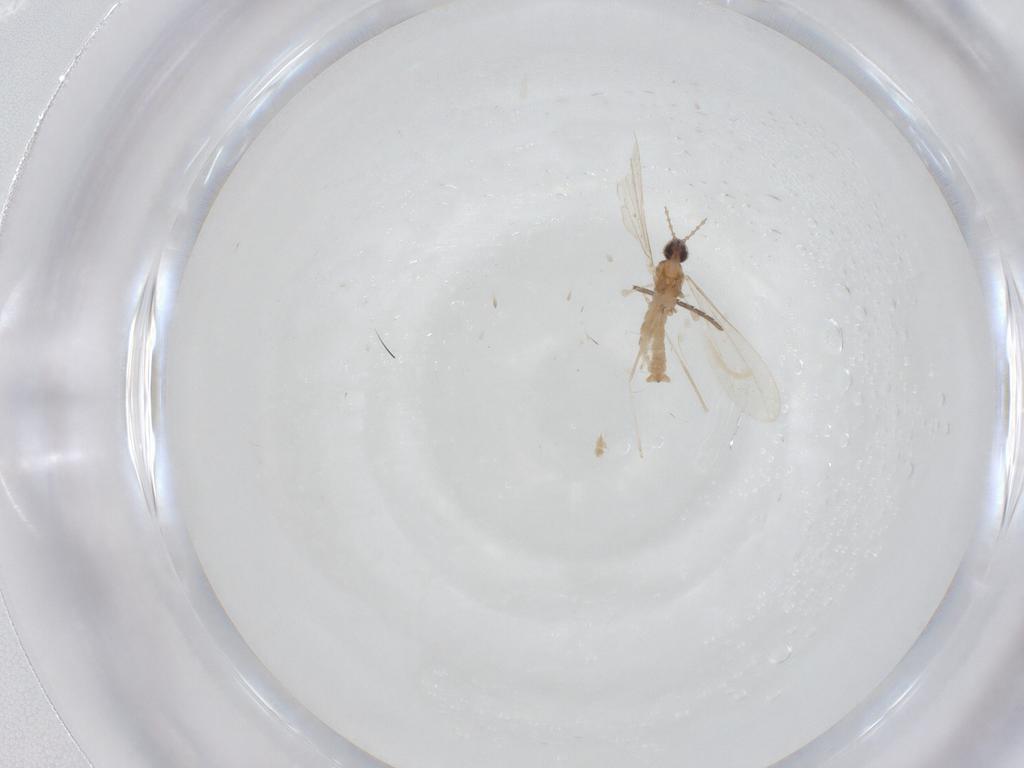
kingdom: Animalia
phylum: Arthropoda
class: Insecta
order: Diptera
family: Cecidomyiidae
